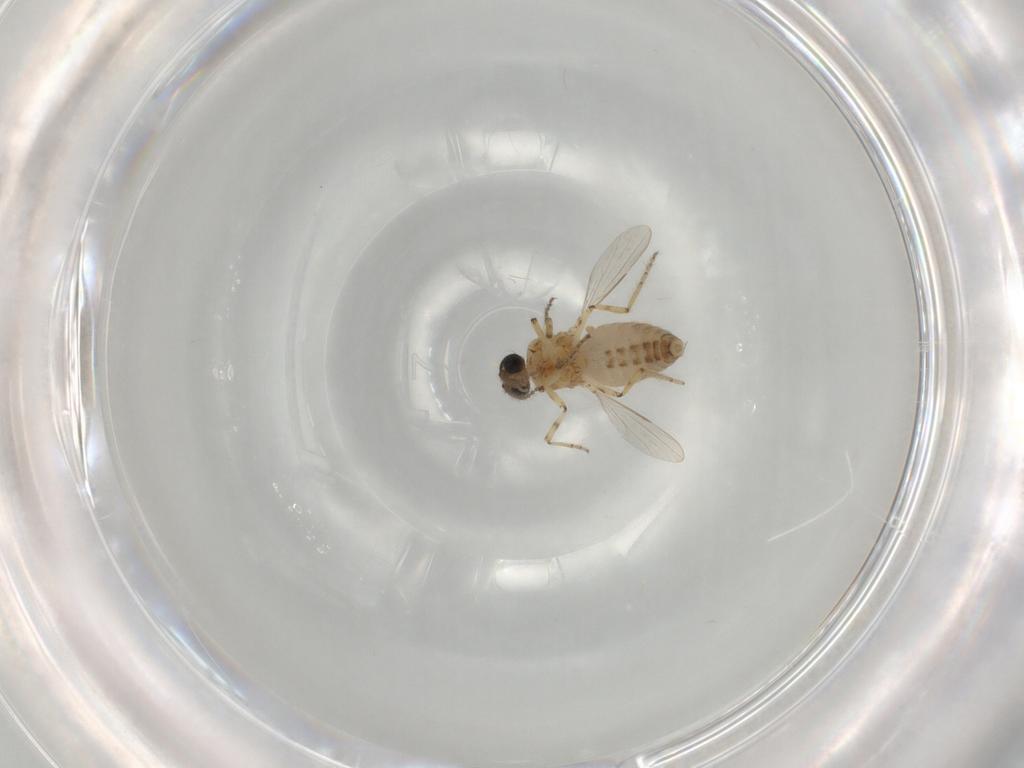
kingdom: Animalia
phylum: Arthropoda
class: Insecta
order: Diptera
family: Ceratopogonidae
